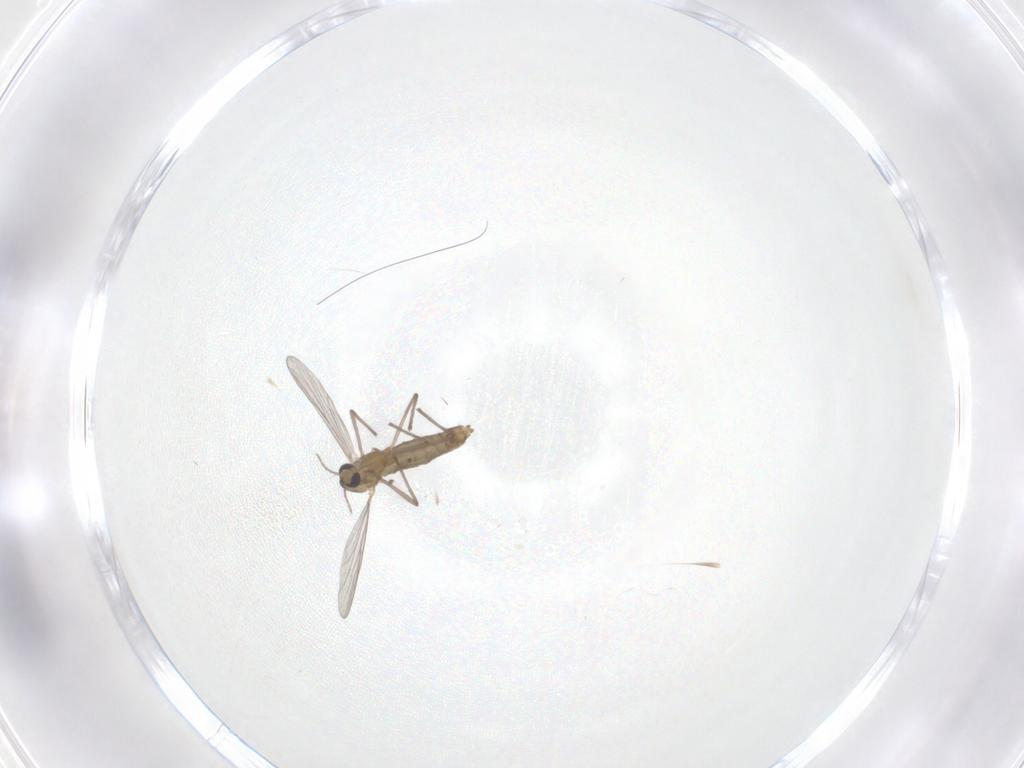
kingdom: Animalia
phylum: Arthropoda
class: Insecta
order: Diptera
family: Chironomidae
